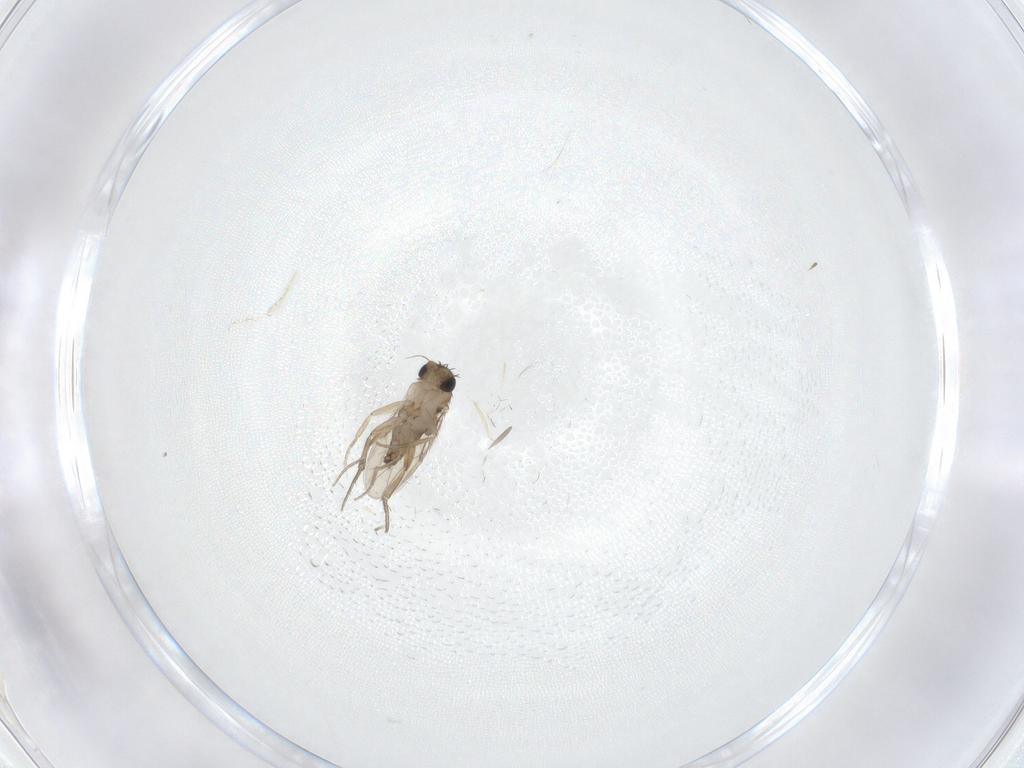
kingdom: Animalia
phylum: Arthropoda
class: Insecta
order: Diptera
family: Phoridae
